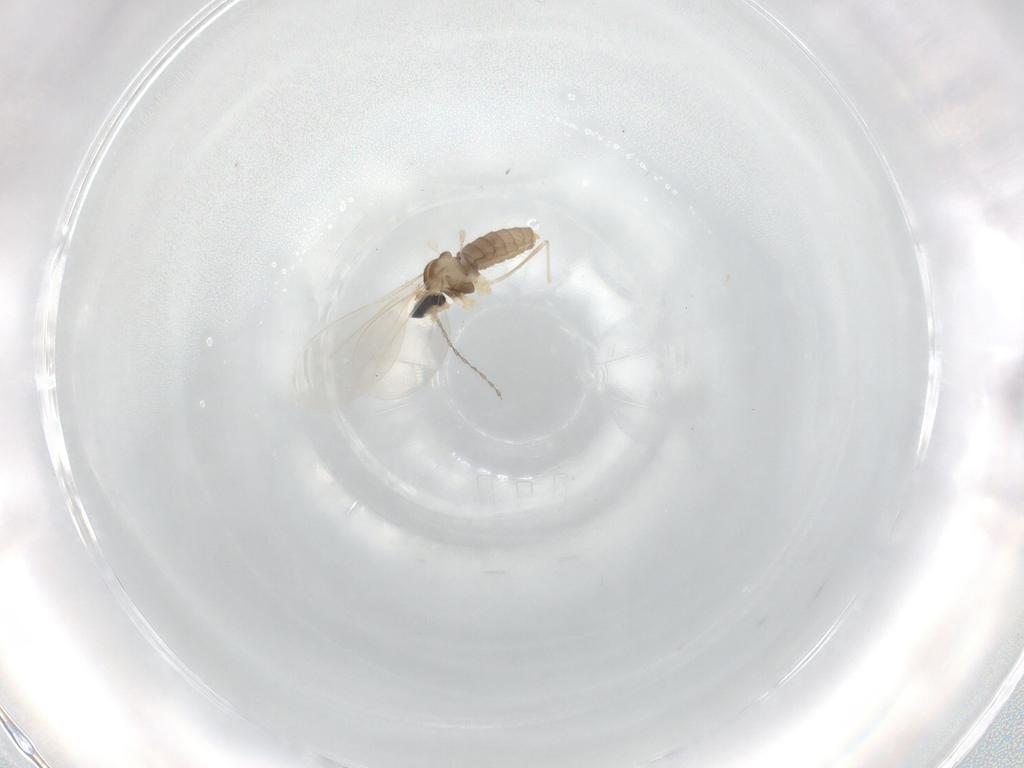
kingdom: Animalia
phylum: Arthropoda
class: Insecta
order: Diptera
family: Cecidomyiidae
